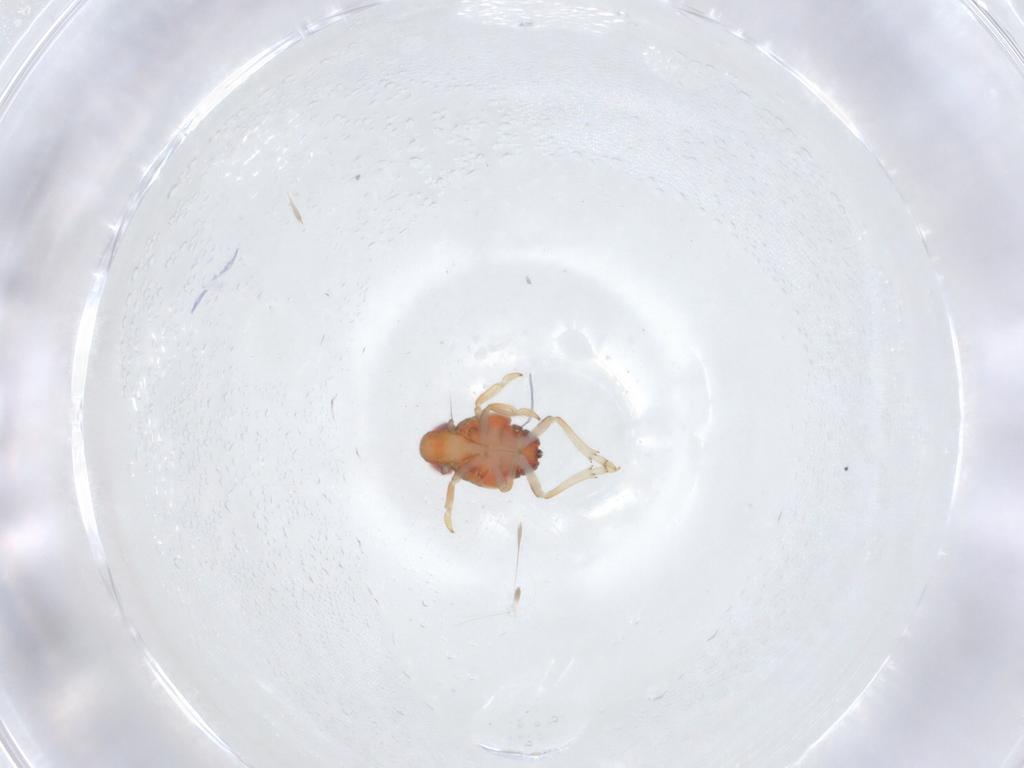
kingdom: Animalia
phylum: Arthropoda
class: Insecta
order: Hemiptera
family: Issidae
